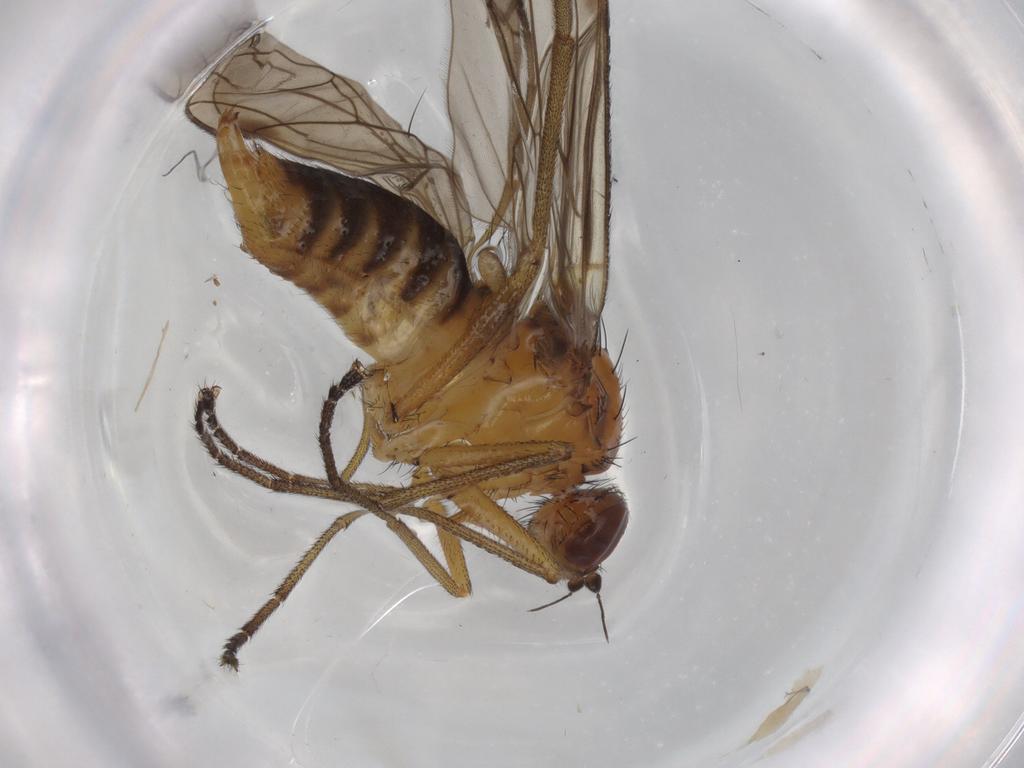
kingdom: Animalia
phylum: Arthropoda
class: Insecta
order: Diptera
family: Brachystomatidae
